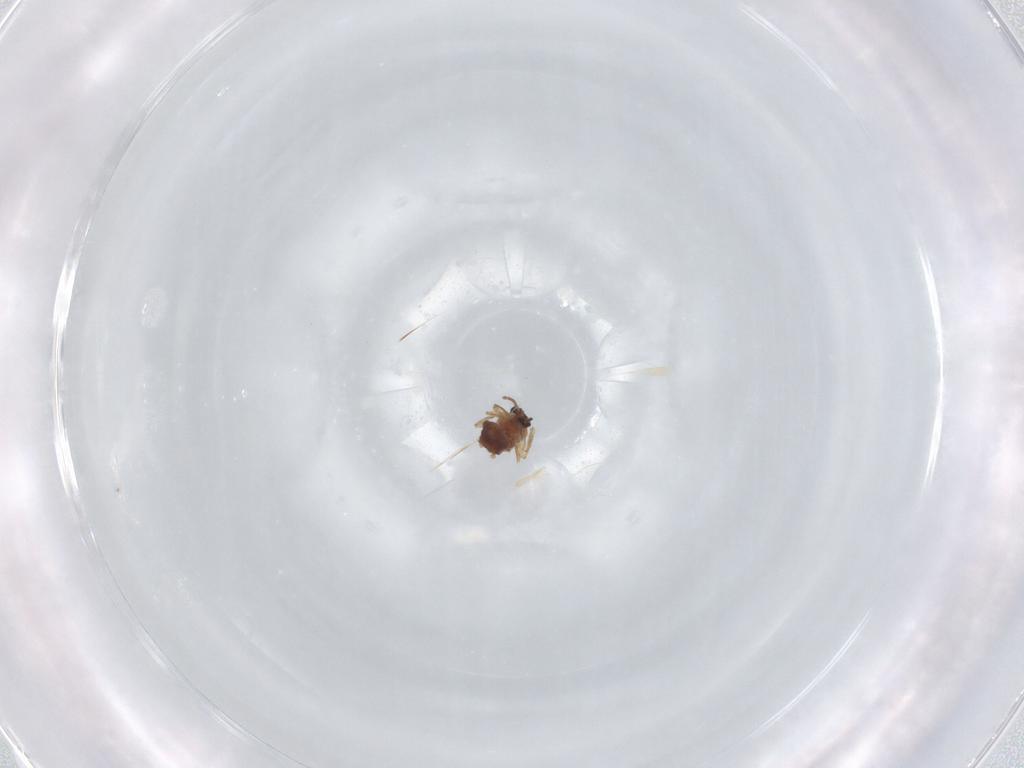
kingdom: Animalia
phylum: Arthropoda
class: Insecta
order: Diptera
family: Ceratopogonidae
